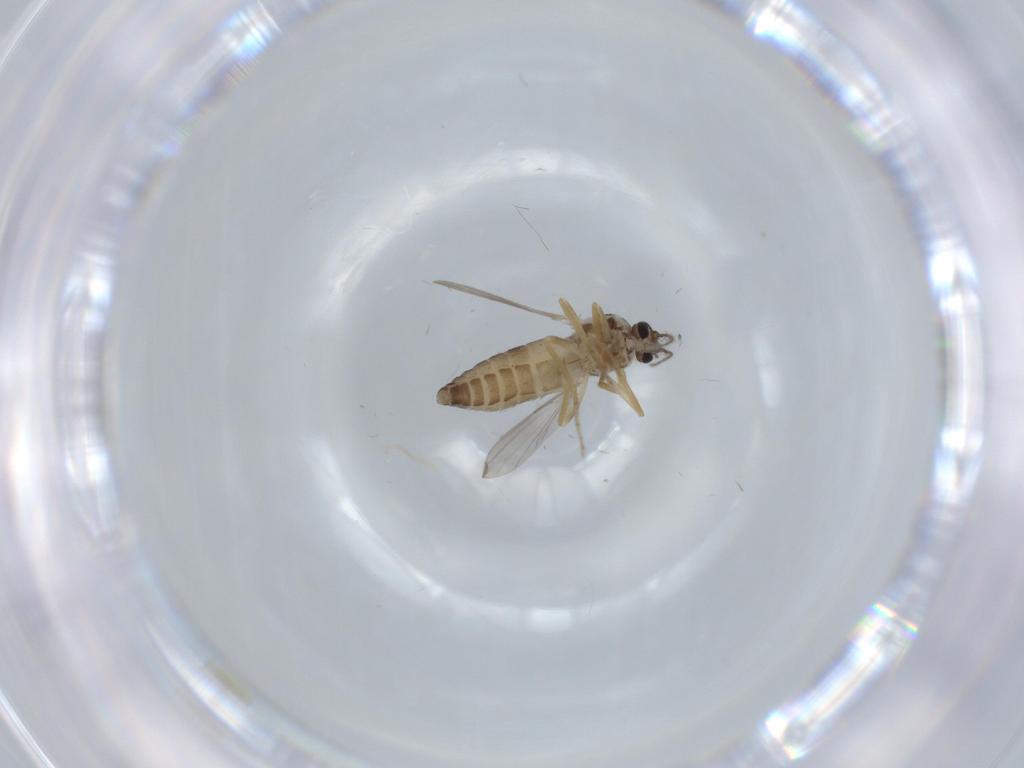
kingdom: Animalia
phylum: Arthropoda
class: Insecta
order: Diptera
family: Ceratopogonidae
